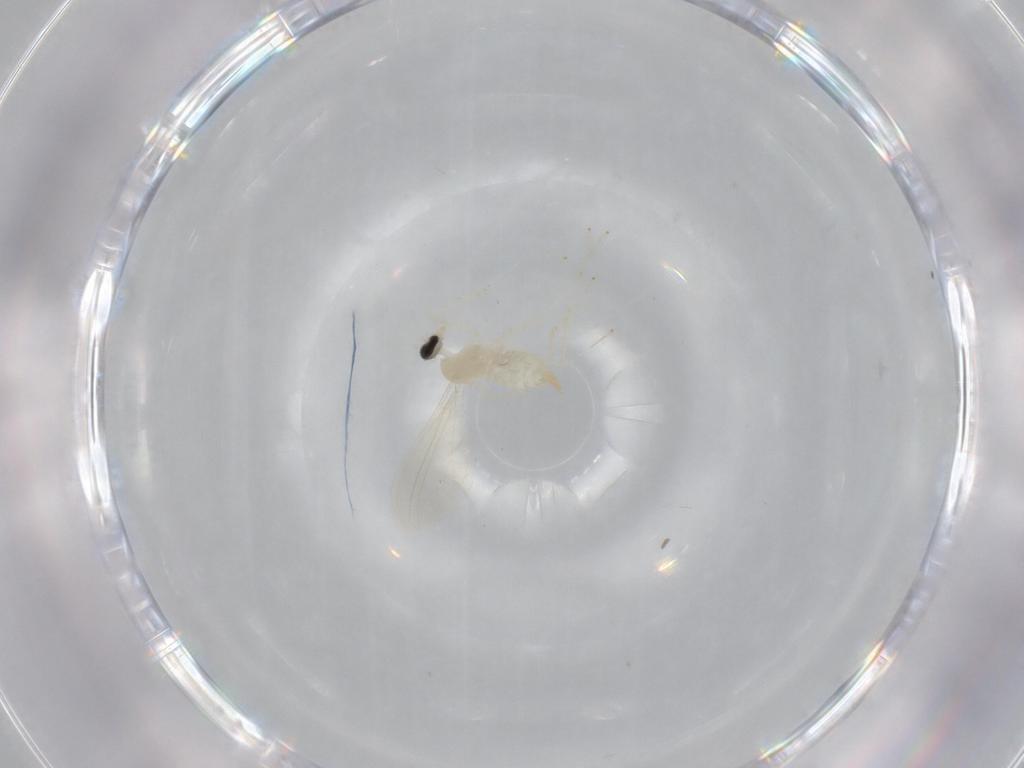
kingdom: Animalia
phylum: Arthropoda
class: Insecta
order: Diptera
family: Cecidomyiidae
